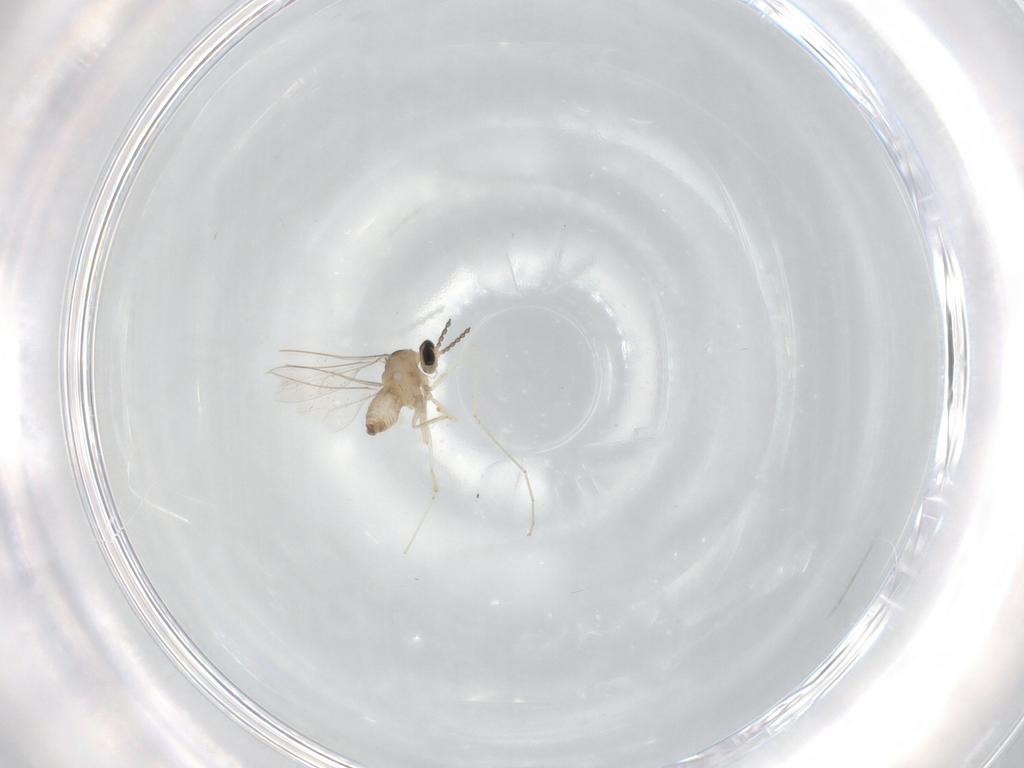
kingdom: Animalia
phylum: Arthropoda
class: Insecta
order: Diptera
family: Cecidomyiidae
